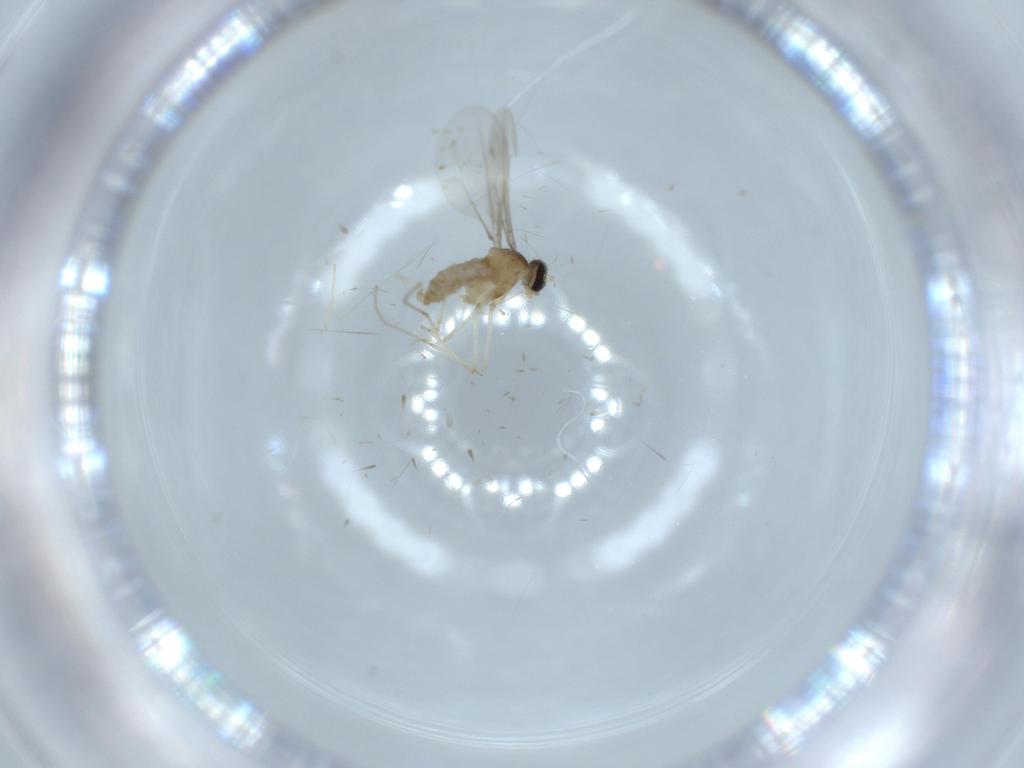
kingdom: Animalia
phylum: Arthropoda
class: Insecta
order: Diptera
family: Cecidomyiidae
